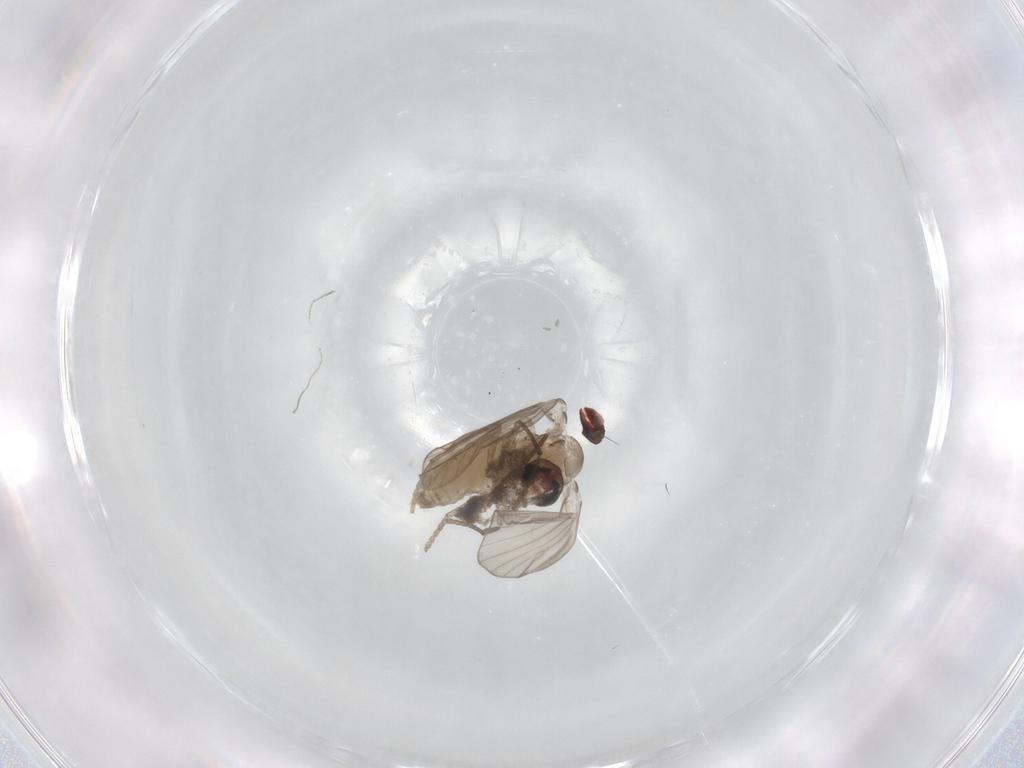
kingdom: Animalia
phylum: Arthropoda
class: Insecta
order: Diptera
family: Dolichopodidae
